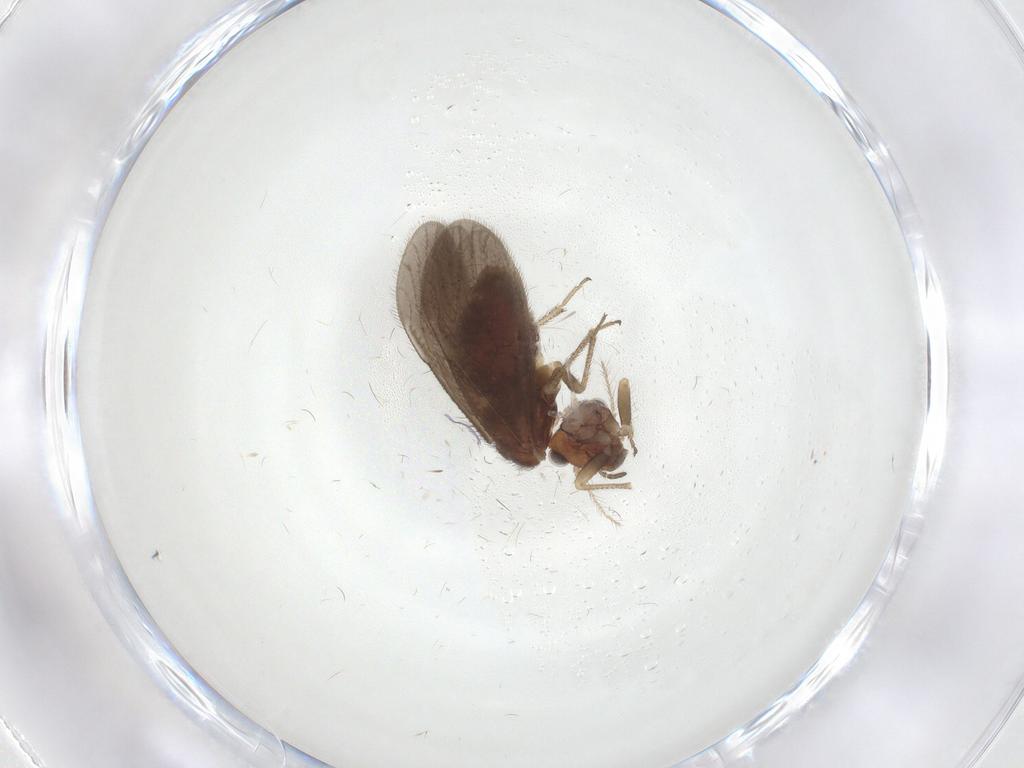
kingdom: Animalia
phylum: Arthropoda
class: Insecta
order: Psocodea
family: Pseudocaeciliidae
